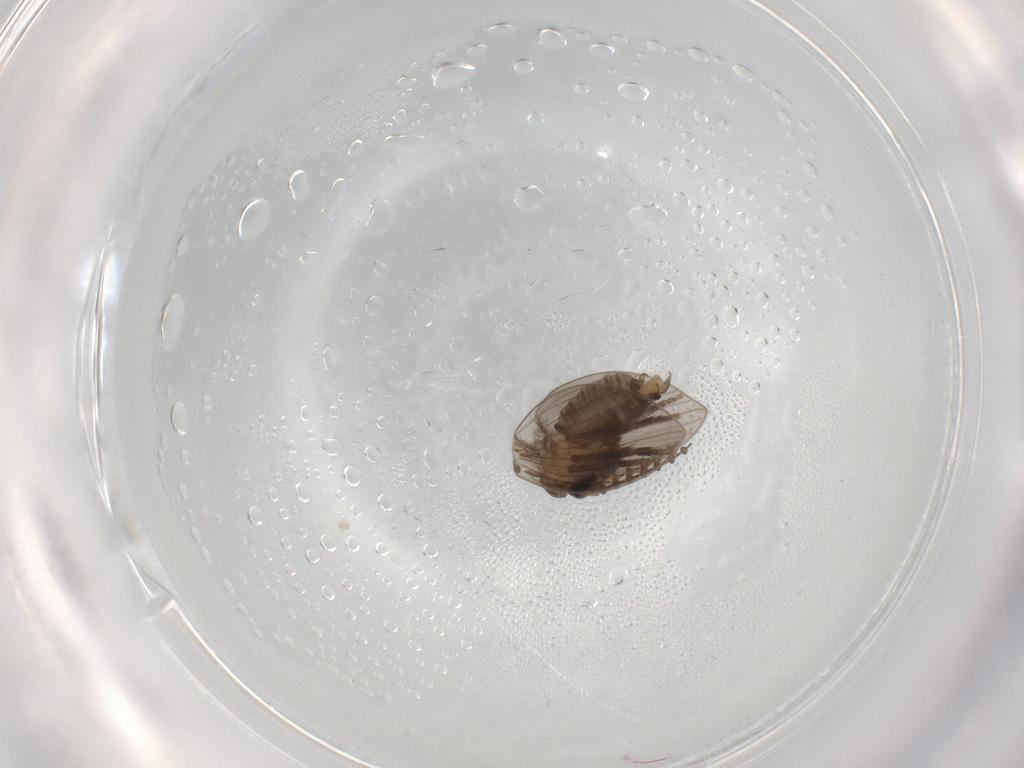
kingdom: Animalia
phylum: Arthropoda
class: Insecta
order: Diptera
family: Psychodidae
